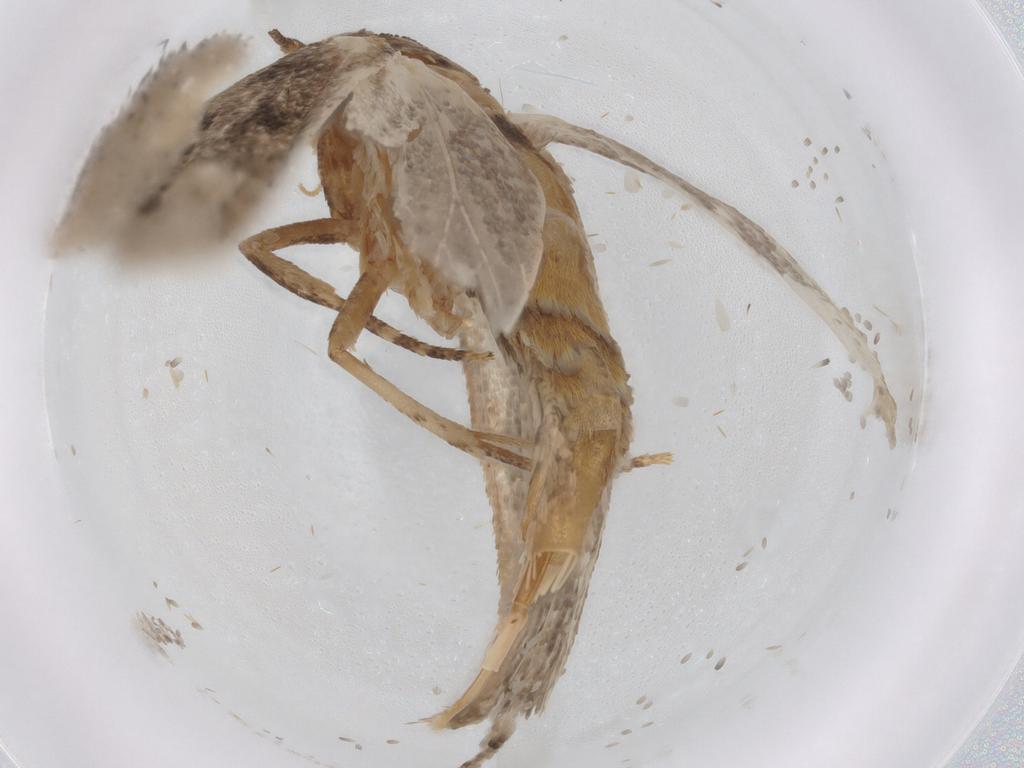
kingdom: Animalia
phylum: Arthropoda
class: Insecta
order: Lepidoptera
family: Oecophoridae
